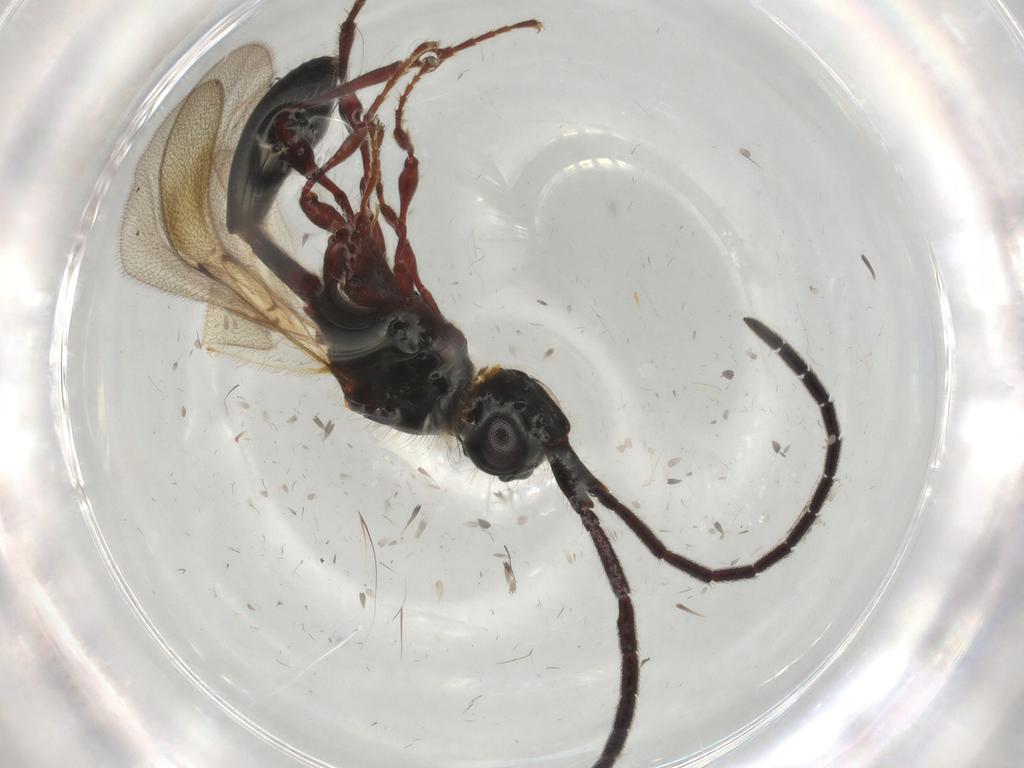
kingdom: Animalia
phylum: Arthropoda
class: Insecta
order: Hymenoptera
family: Diapriidae
